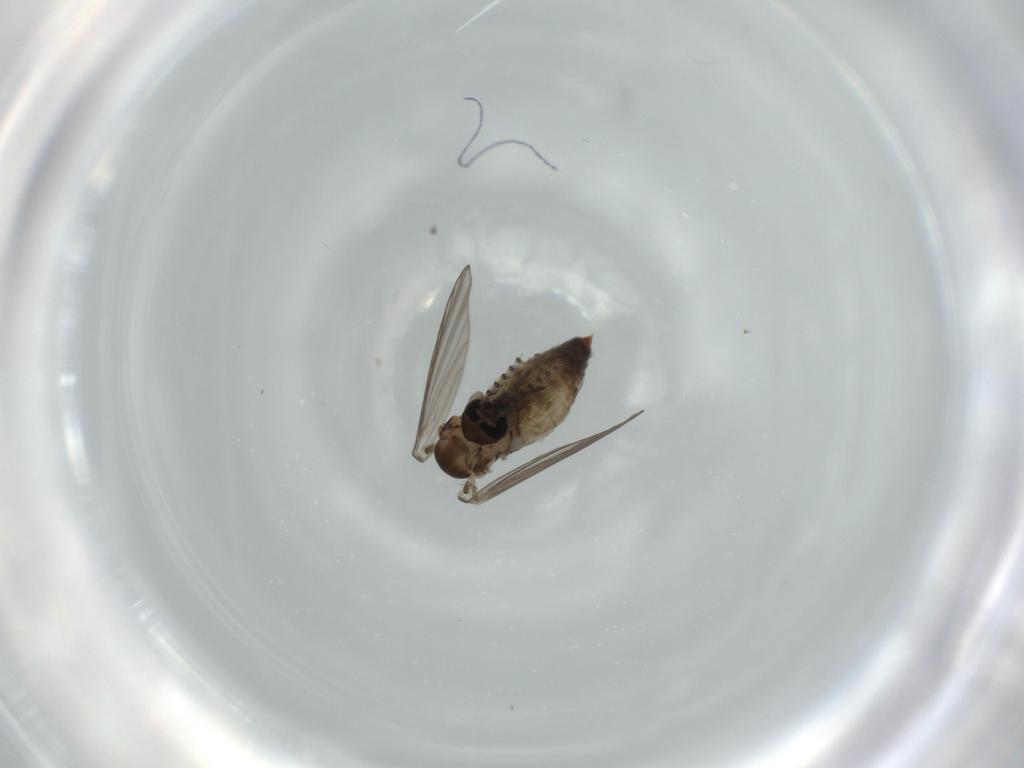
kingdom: Animalia
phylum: Arthropoda
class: Insecta
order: Diptera
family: Psychodidae
